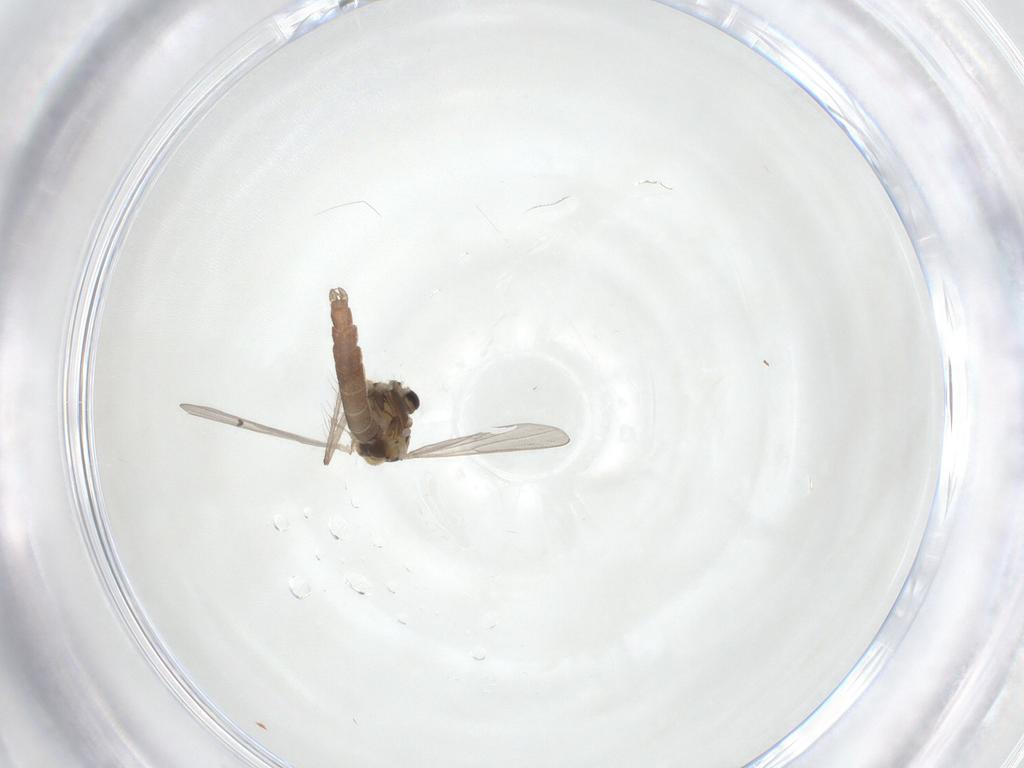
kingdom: Animalia
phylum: Arthropoda
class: Insecta
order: Diptera
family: Chironomidae
